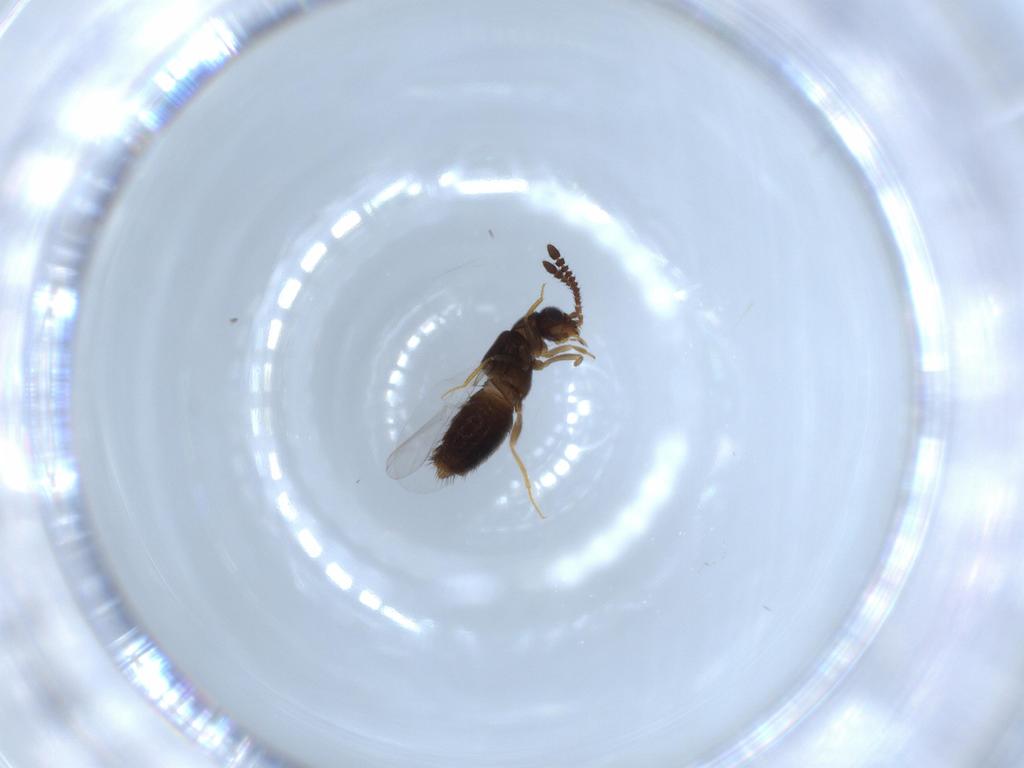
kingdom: Animalia
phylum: Arthropoda
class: Insecta
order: Coleoptera
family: Staphylinidae
